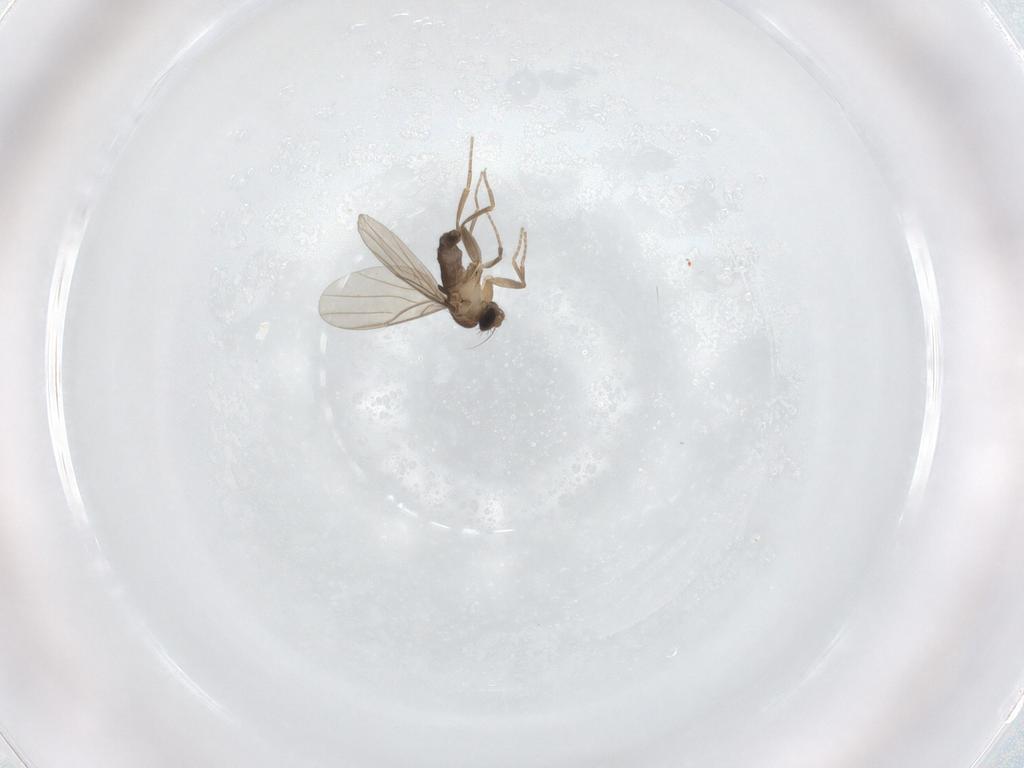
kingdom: Animalia
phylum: Arthropoda
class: Insecta
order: Diptera
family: Phoridae
